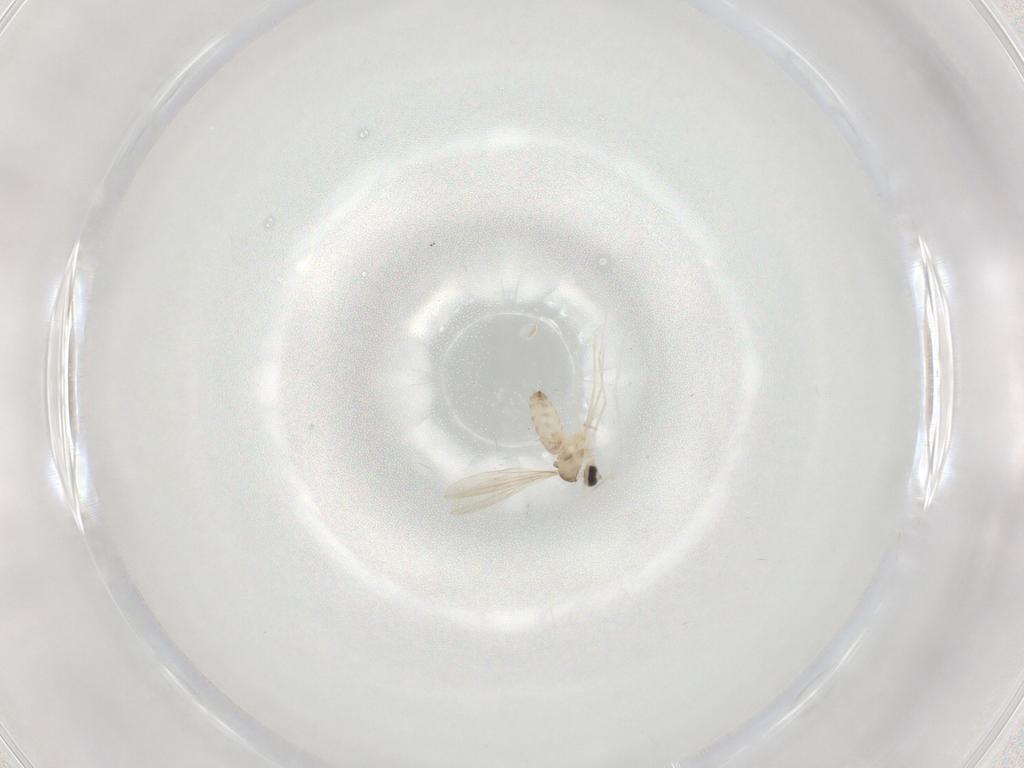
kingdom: Animalia
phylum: Arthropoda
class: Insecta
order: Diptera
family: Cecidomyiidae
